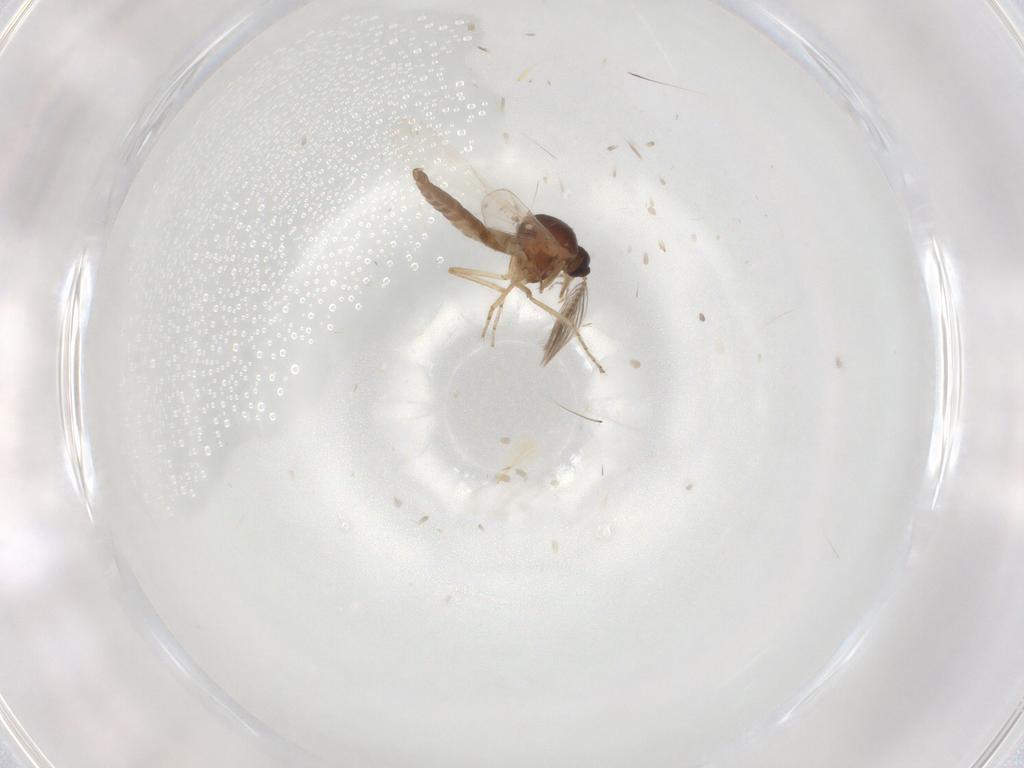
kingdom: Animalia
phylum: Arthropoda
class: Insecta
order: Diptera
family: Ceratopogonidae
